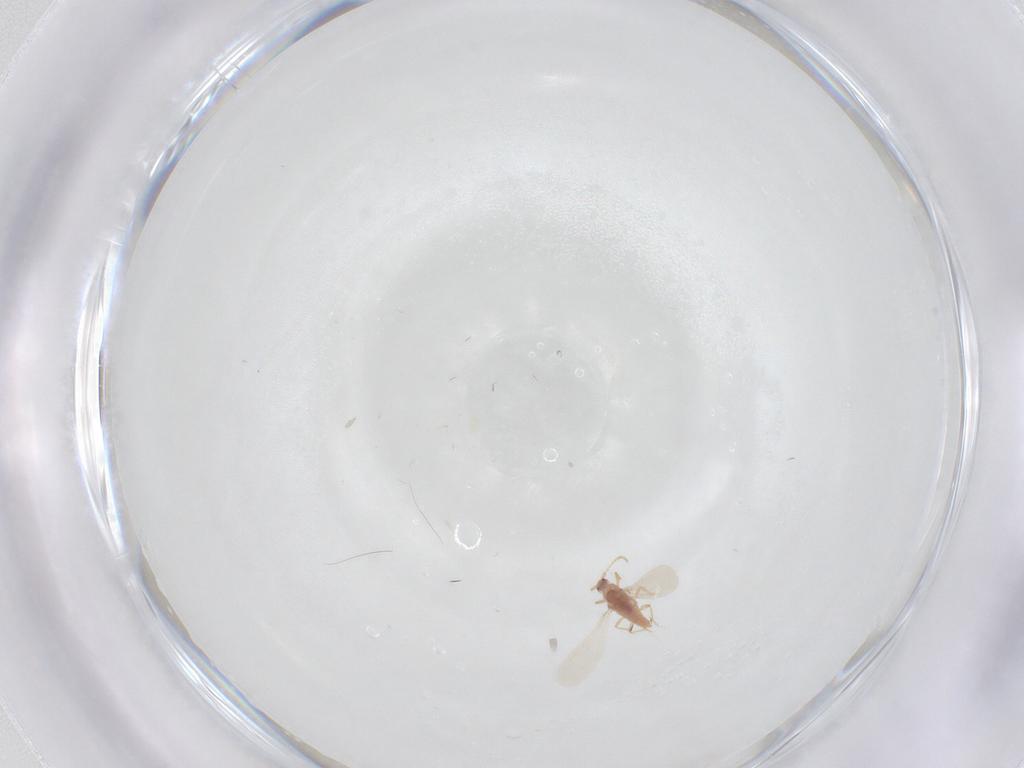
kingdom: Animalia
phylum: Arthropoda
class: Insecta
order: Diptera
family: Cecidomyiidae
